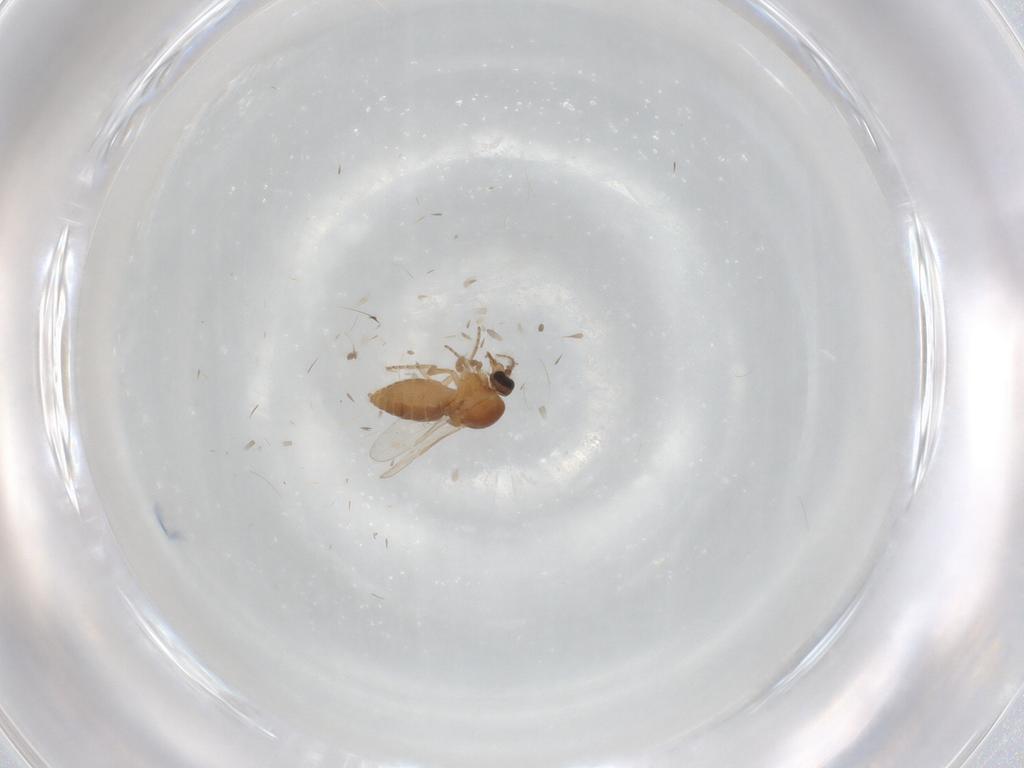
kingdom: Animalia
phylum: Arthropoda
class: Insecta
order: Diptera
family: Ceratopogonidae
